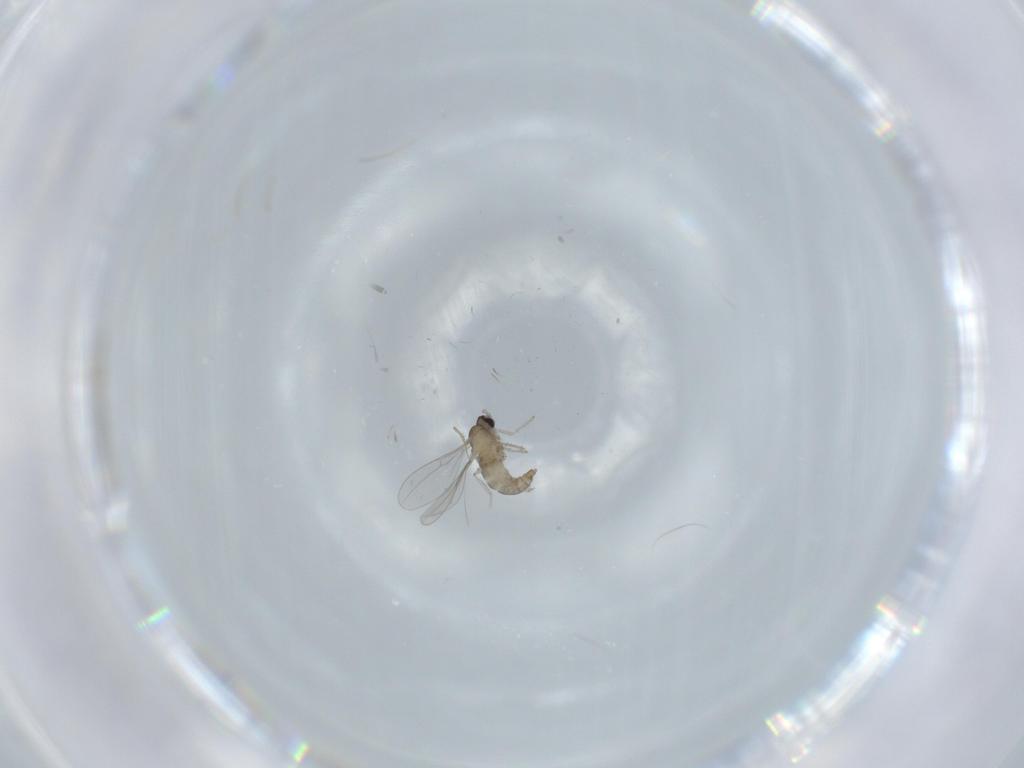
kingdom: Animalia
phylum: Arthropoda
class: Insecta
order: Diptera
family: Cecidomyiidae
